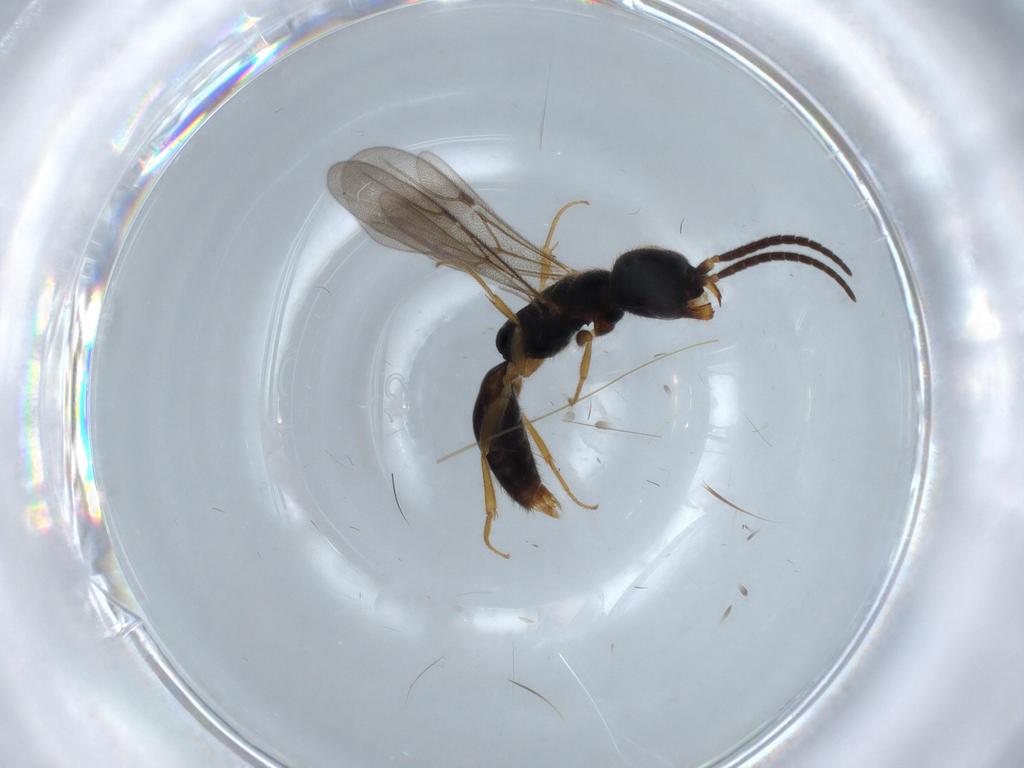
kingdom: Animalia
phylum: Arthropoda
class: Insecta
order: Hymenoptera
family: Bethylidae
